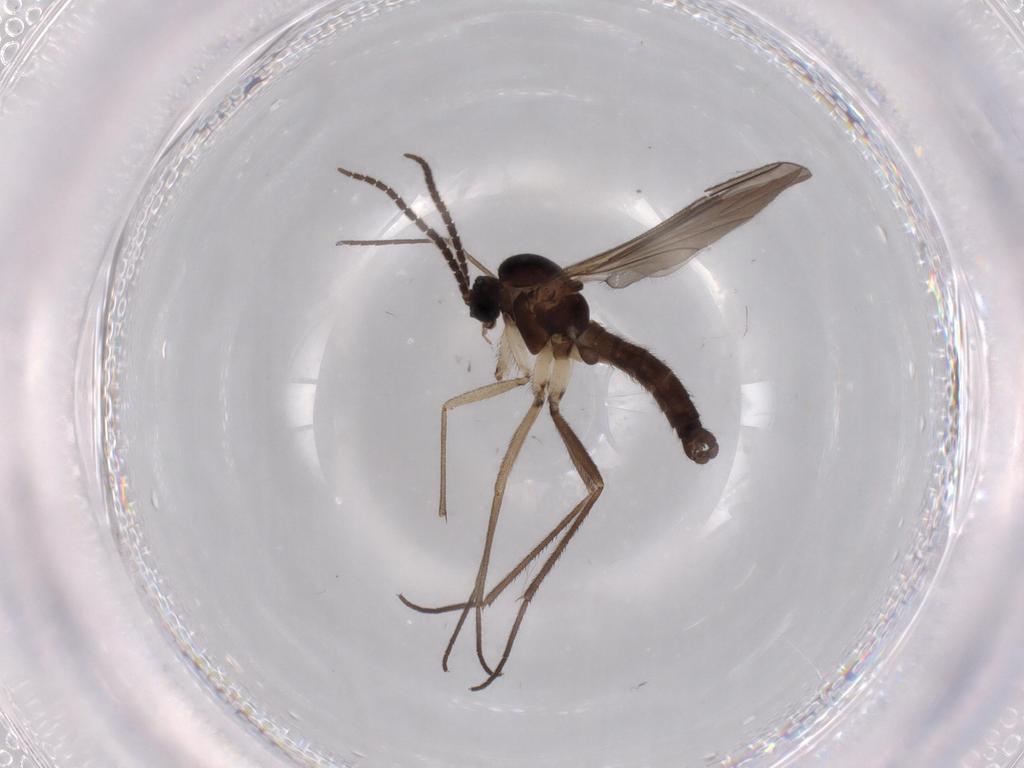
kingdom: Animalia
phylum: Arthropoda
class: Insecta
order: Diptera
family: Sciaridae
